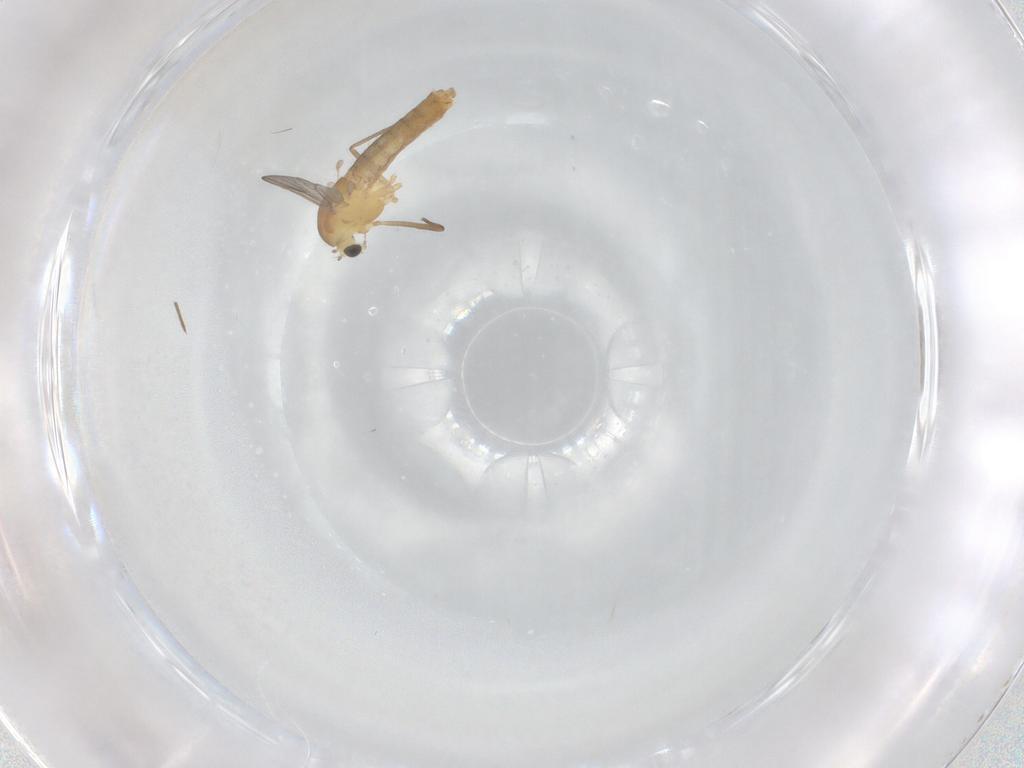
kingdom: Animalia
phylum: Arthropoda
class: Insecta
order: Diptera
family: Chironomidae
